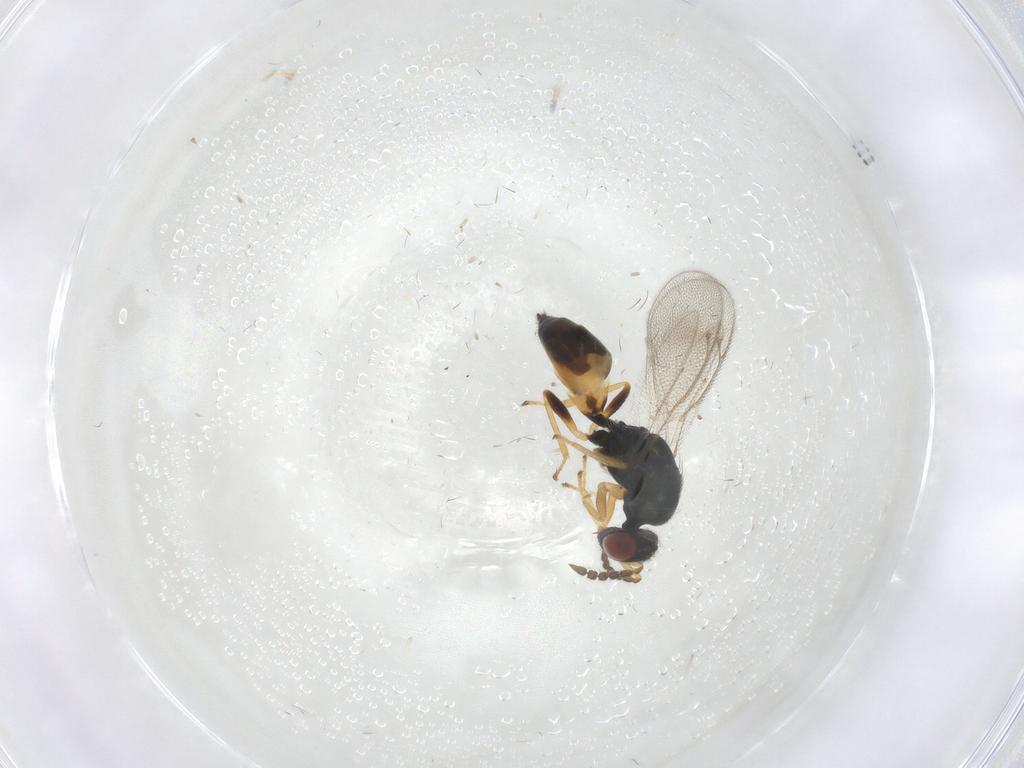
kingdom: Animalia
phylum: Arthropoda
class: Insecta
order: Hymenoptera
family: Eulophidae
